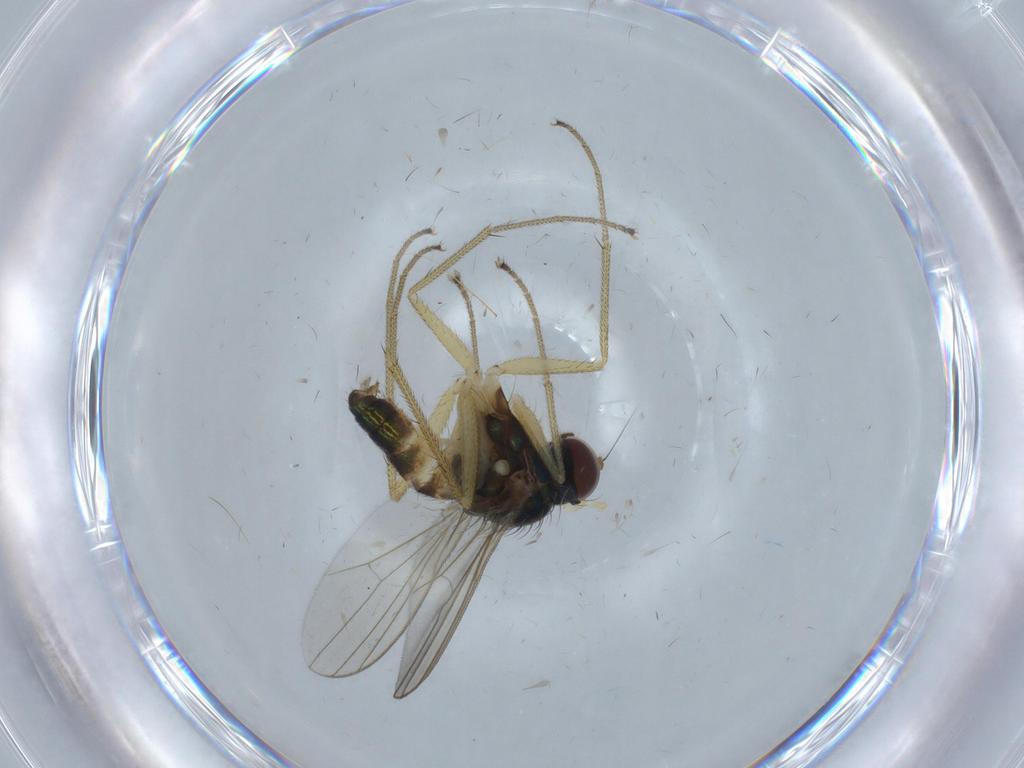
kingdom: Animalia
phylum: Arthropoda
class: Insecta
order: Diptera
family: Dolichopodidae
